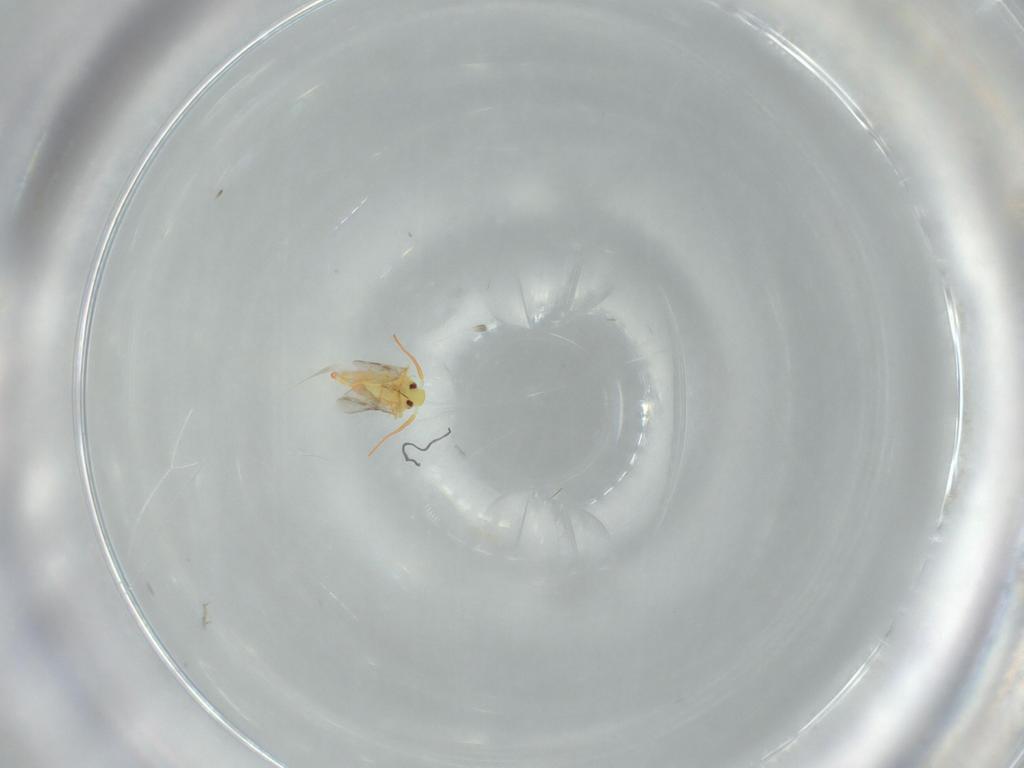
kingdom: Animalia
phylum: Arthropoda
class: Insecta
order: Hemiptera
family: Aleyrodidae
